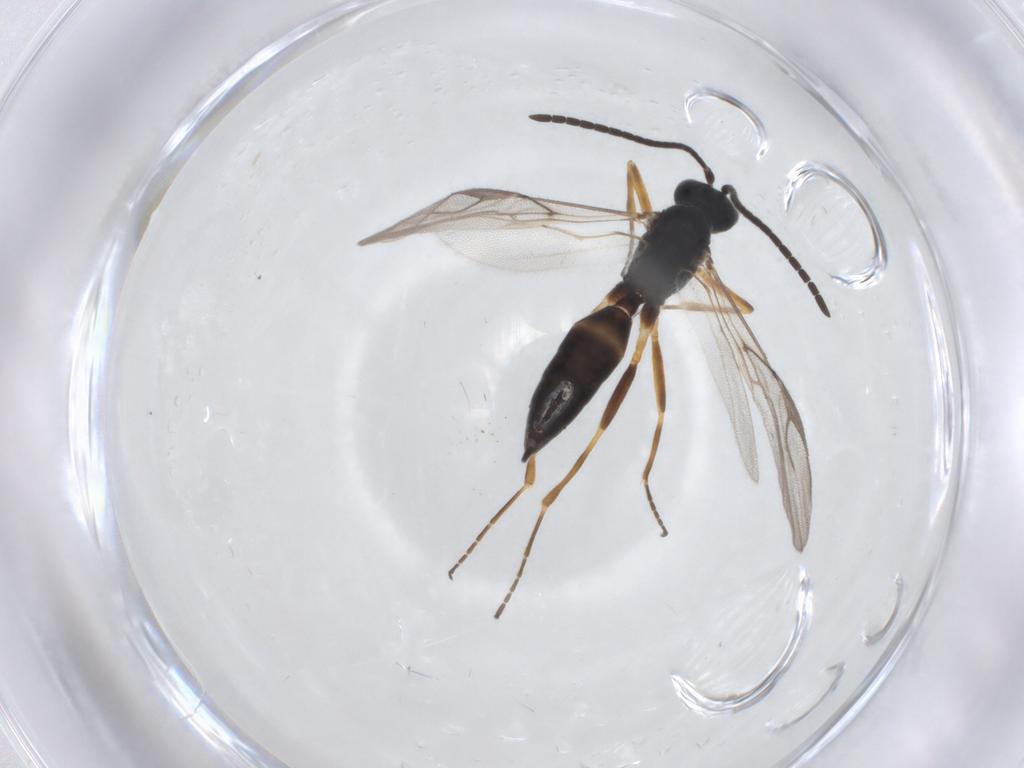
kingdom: Animalia
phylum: Arthropoda
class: Insecta
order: Hymenoptera
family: Braconidae
